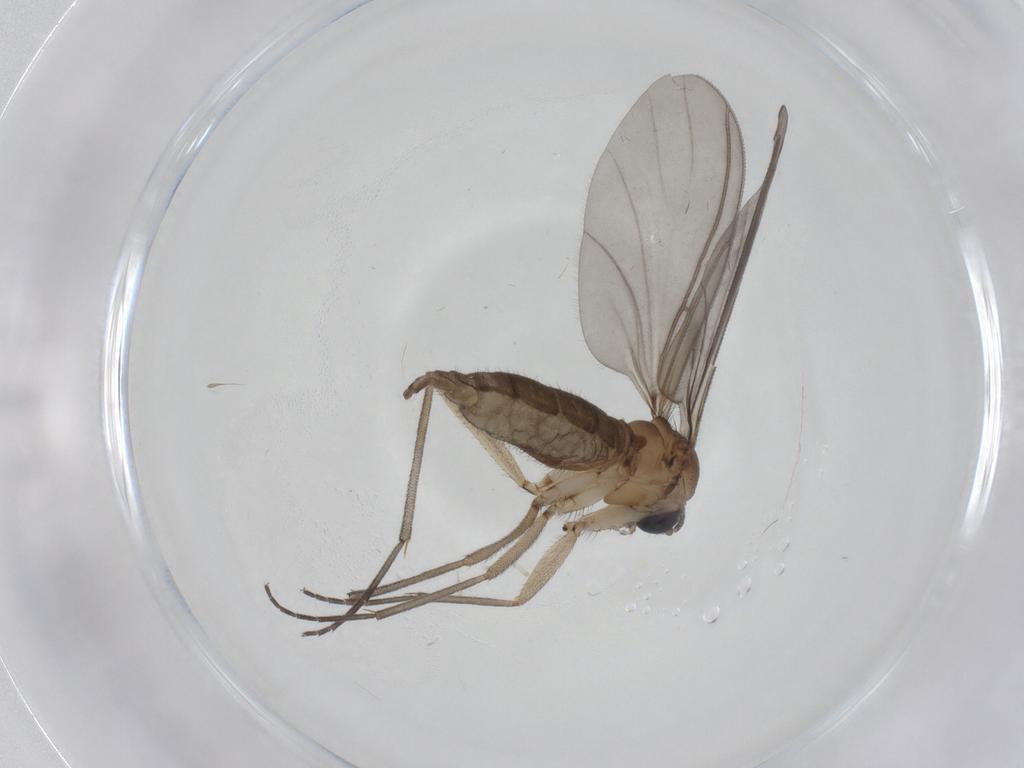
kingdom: Animalia
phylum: Arthropoda
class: Insecta
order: Diptera
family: Sciaridae
